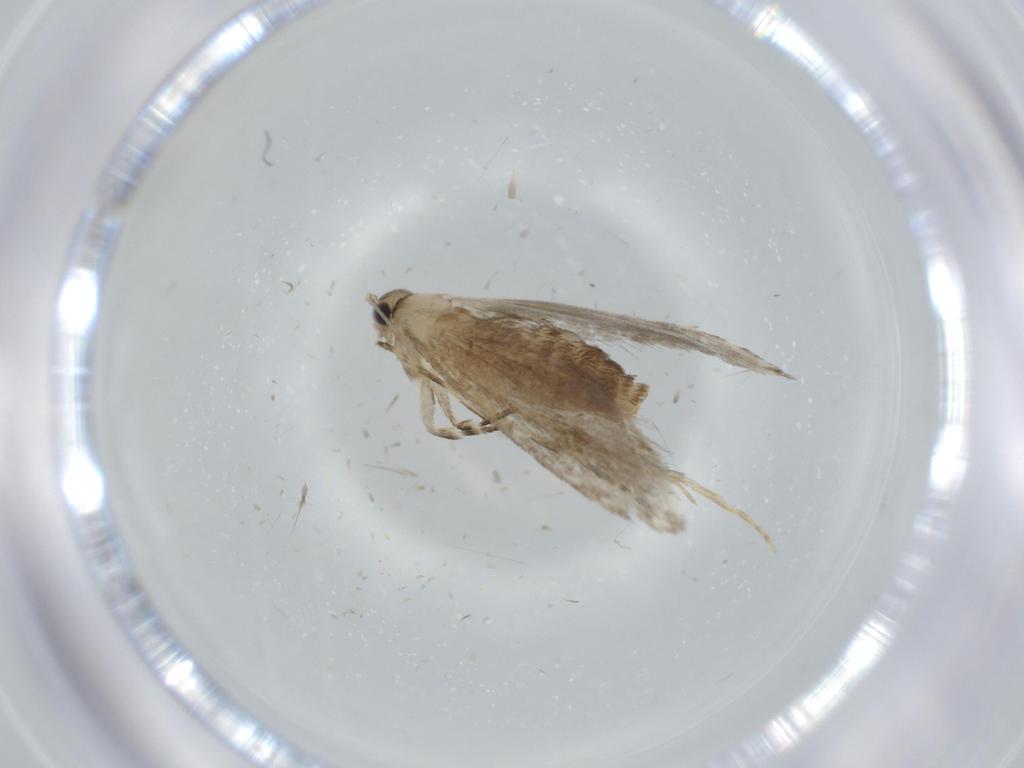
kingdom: Animalia
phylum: Arthropoda
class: Insecta
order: Lepidoptera
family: Tineidae
